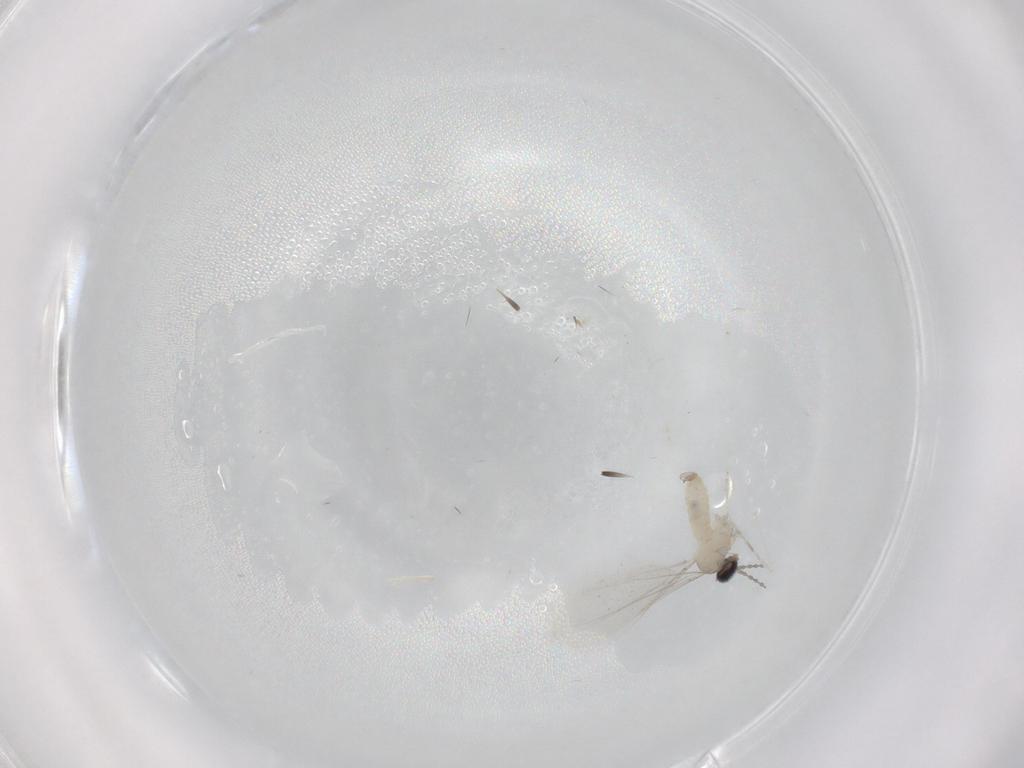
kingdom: Animalia
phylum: Arthropoda
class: Insecta
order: Diptera
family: Cecidomyiidae
